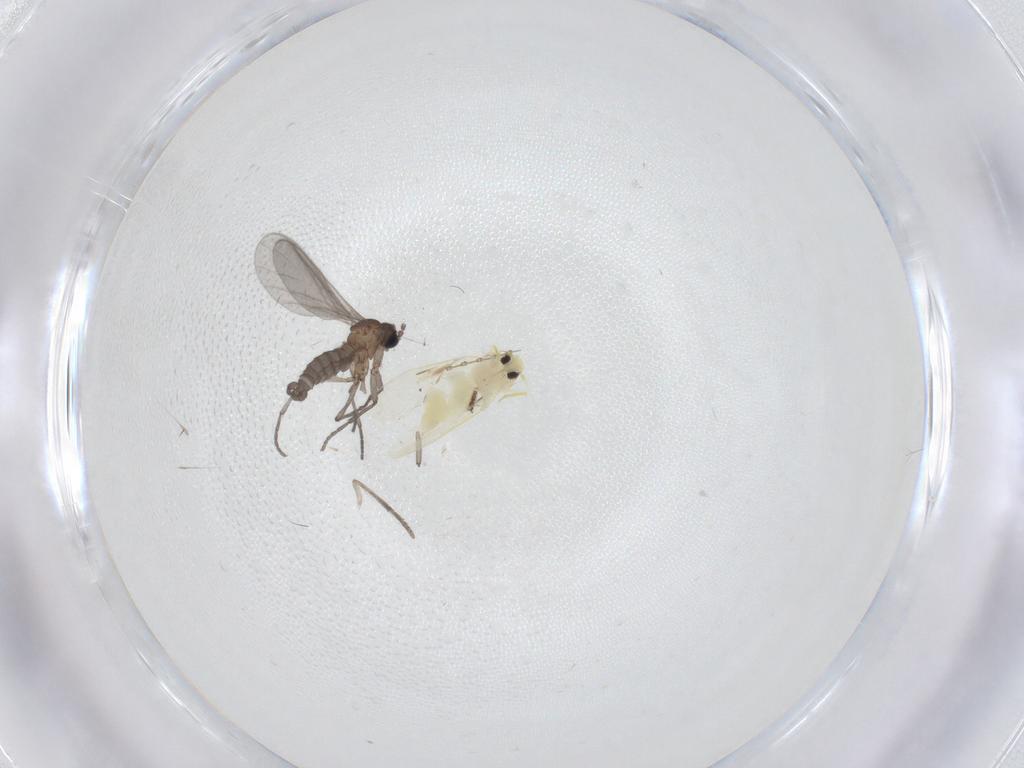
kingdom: Animalia
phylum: Arthropoda
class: Insecta
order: Diptera
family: Sciaridae
